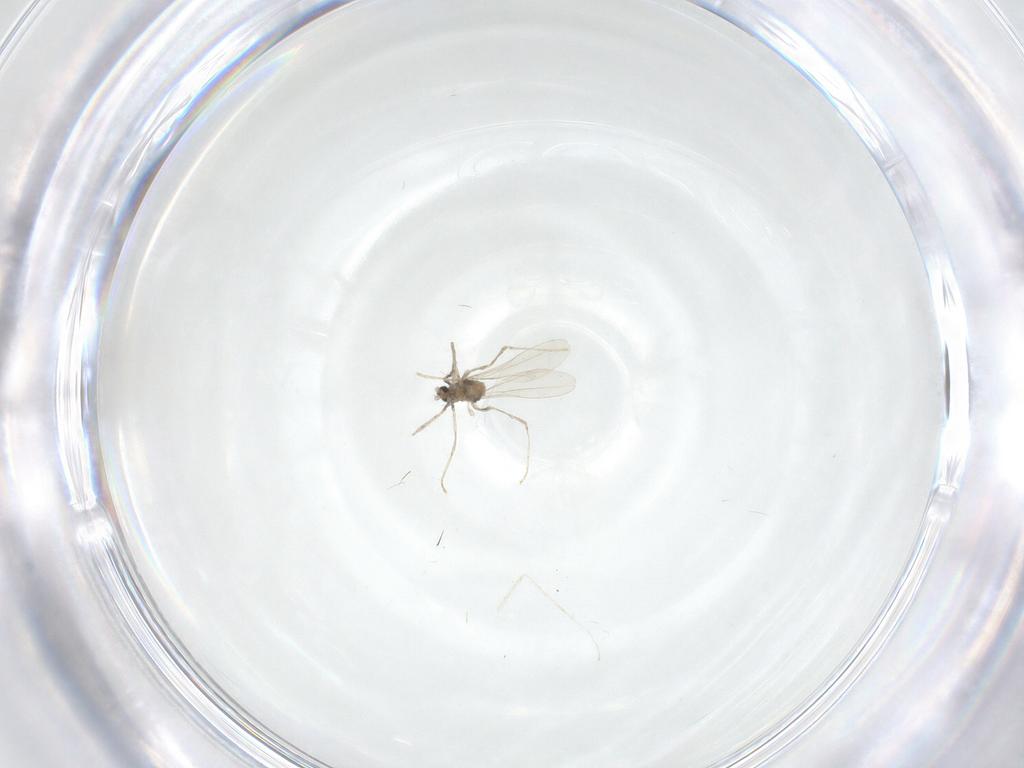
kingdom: Animalia
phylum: Arthropoda
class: Insecta
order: Diptera
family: Cecidomyiidae
